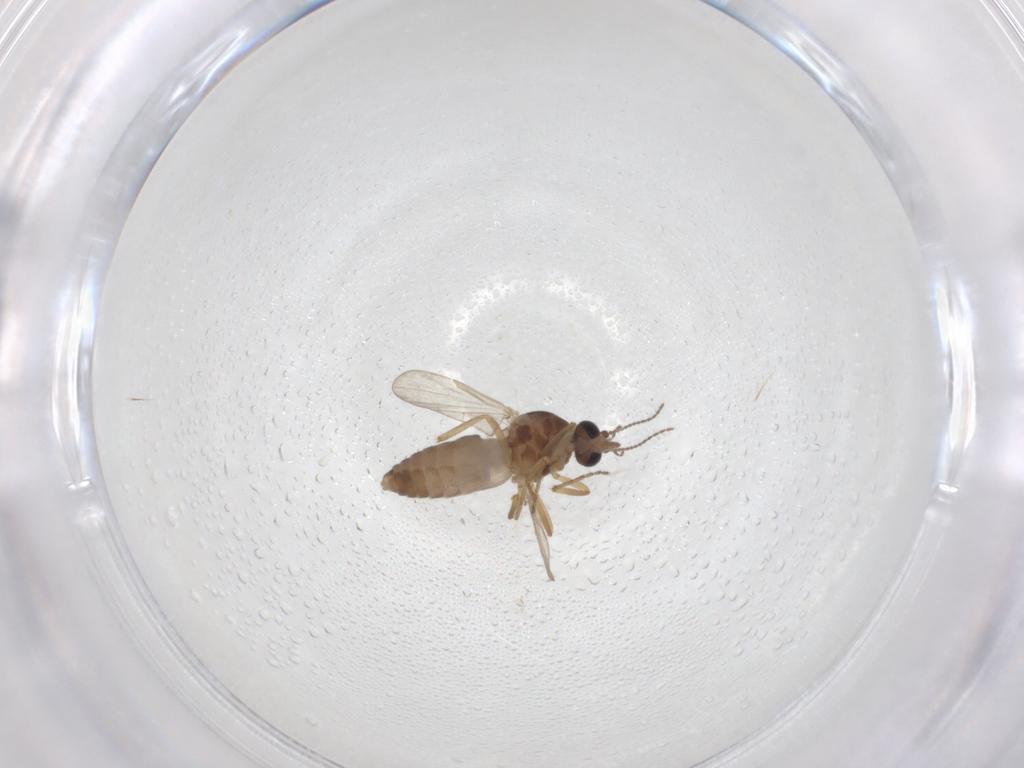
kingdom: Animalia
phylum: Arthropoda
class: Insecta
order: Diptera
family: Ceratopogonidae
